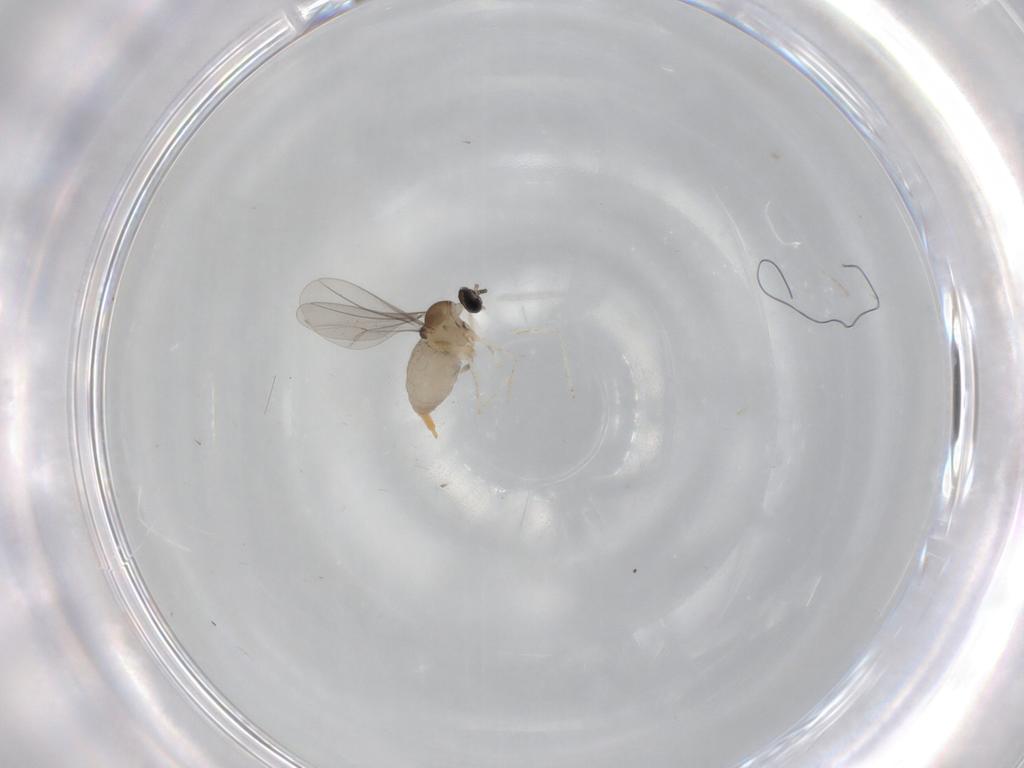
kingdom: Animalia
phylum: Arthropoda
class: Insecta
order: Diptera
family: Cecidomyiidae
